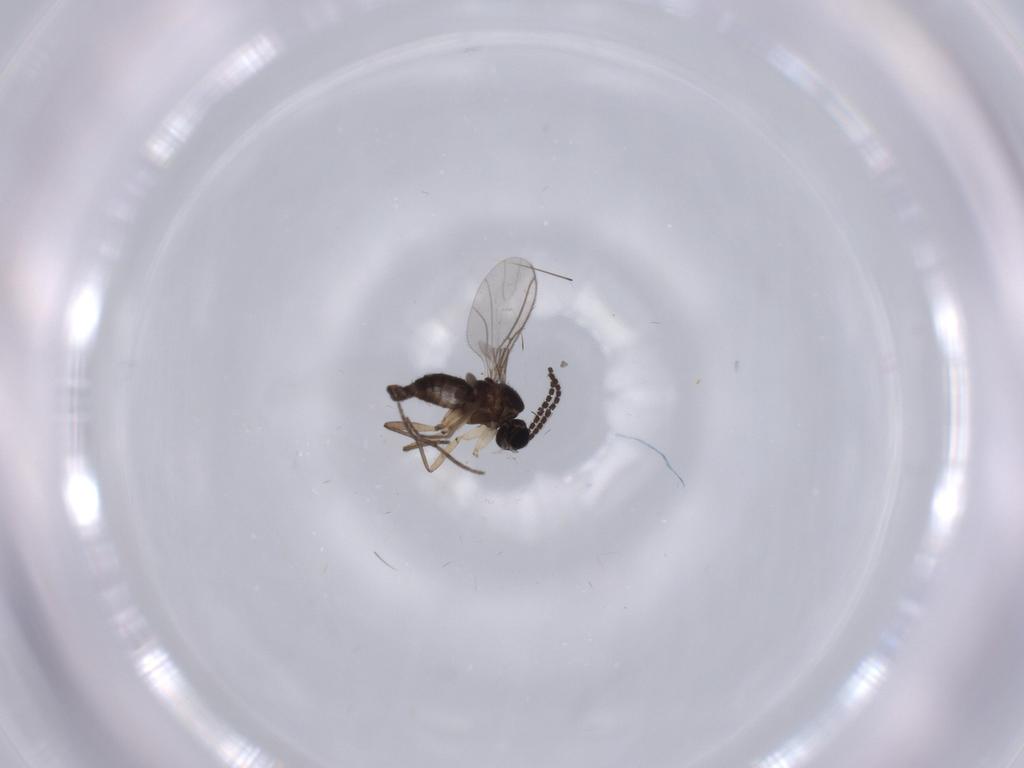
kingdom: Animalia
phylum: Arthropoda
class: Insecta
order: Diptera
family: Sciaridae
